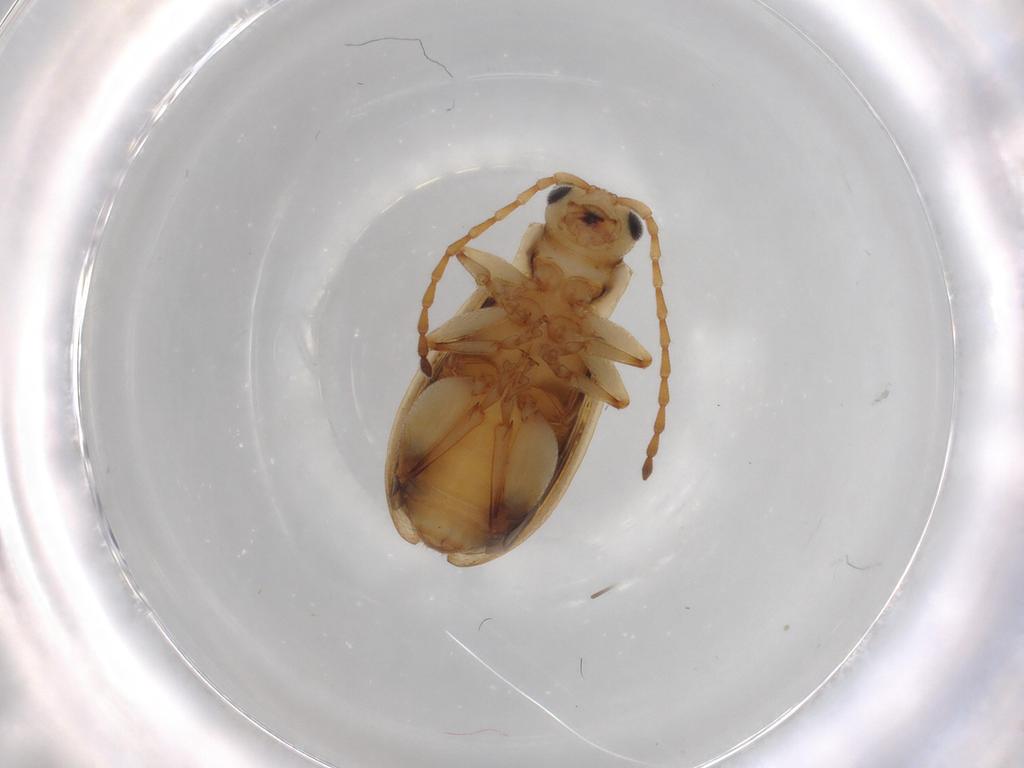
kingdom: Animalia
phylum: Arthropoda
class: Insecta
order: Coleoptera
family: Chrysomelidae
